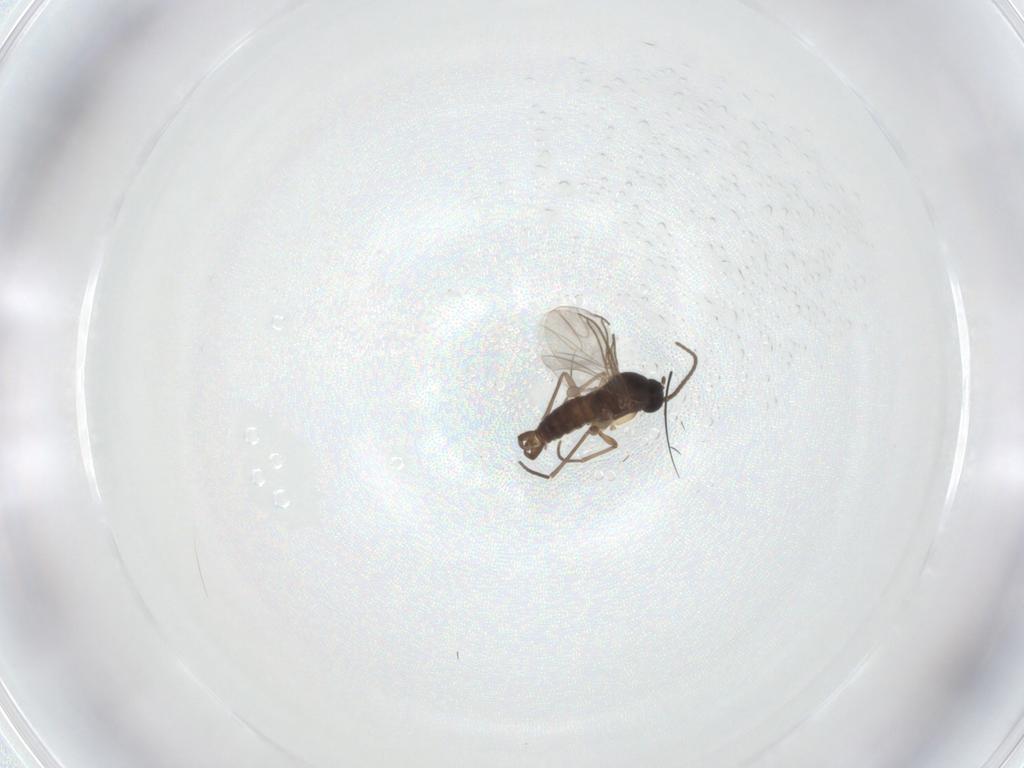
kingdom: Animalia
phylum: Arthropoda
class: Insecta
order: Diptera
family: Sciaridae
